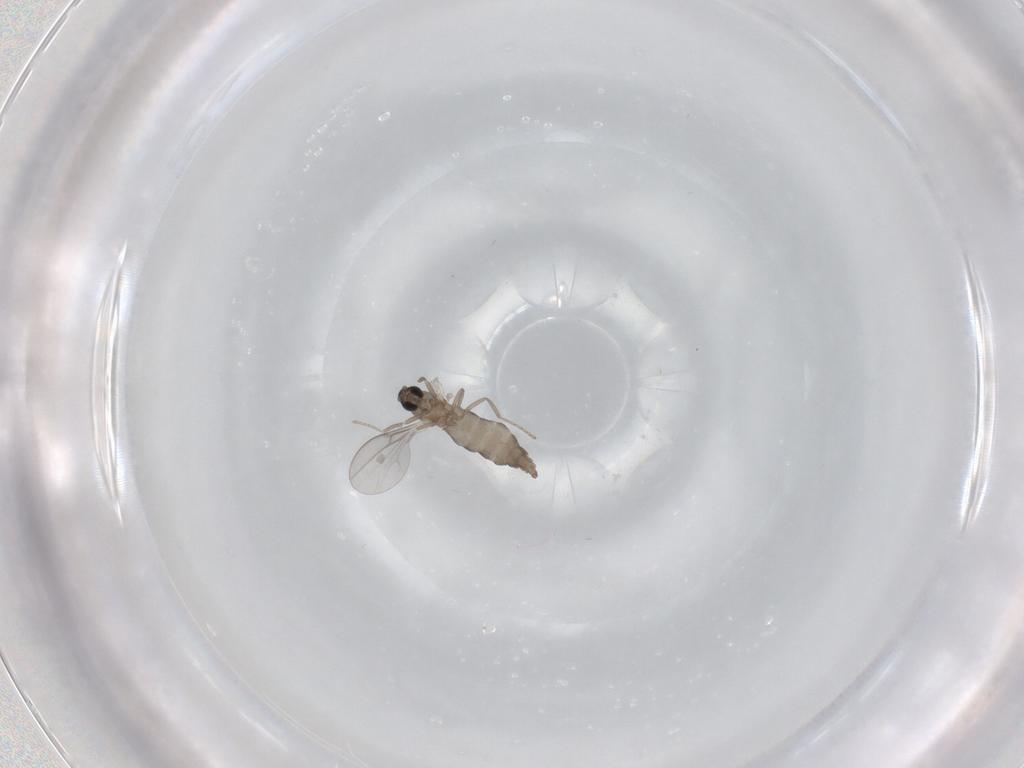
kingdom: Animalia
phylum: Arthropoda
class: Insecta
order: Diptera
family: Cecidomyiidae
